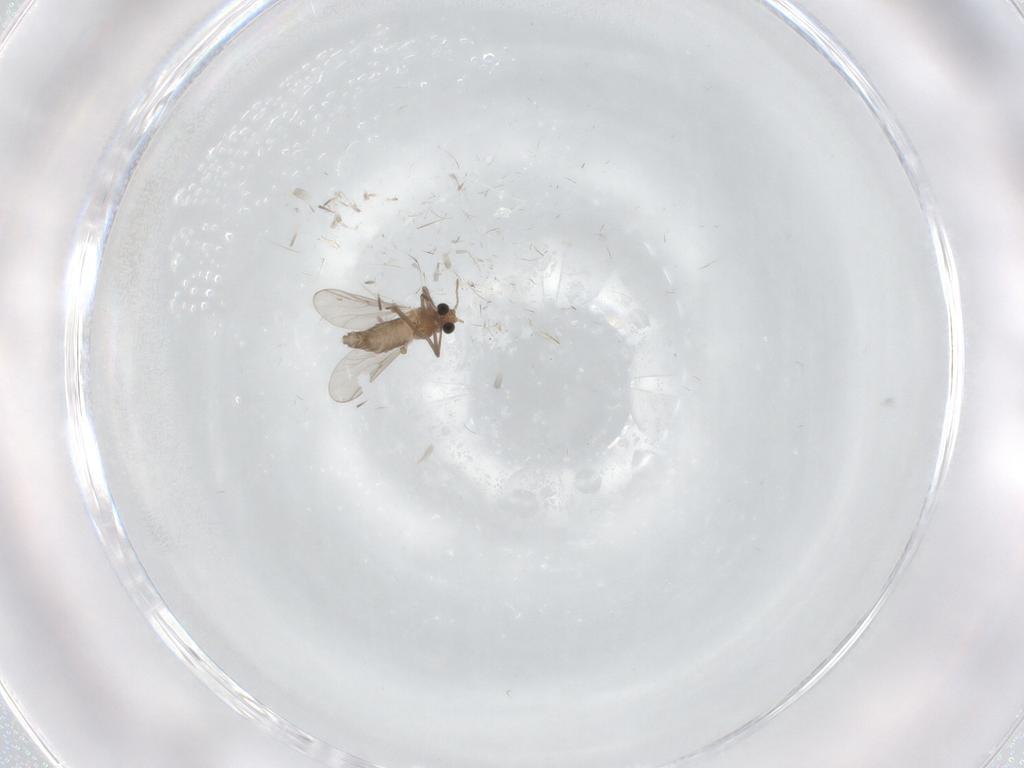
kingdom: Animalia
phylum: Arthropoda
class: Insecta
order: Diptera
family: Chironomidae
